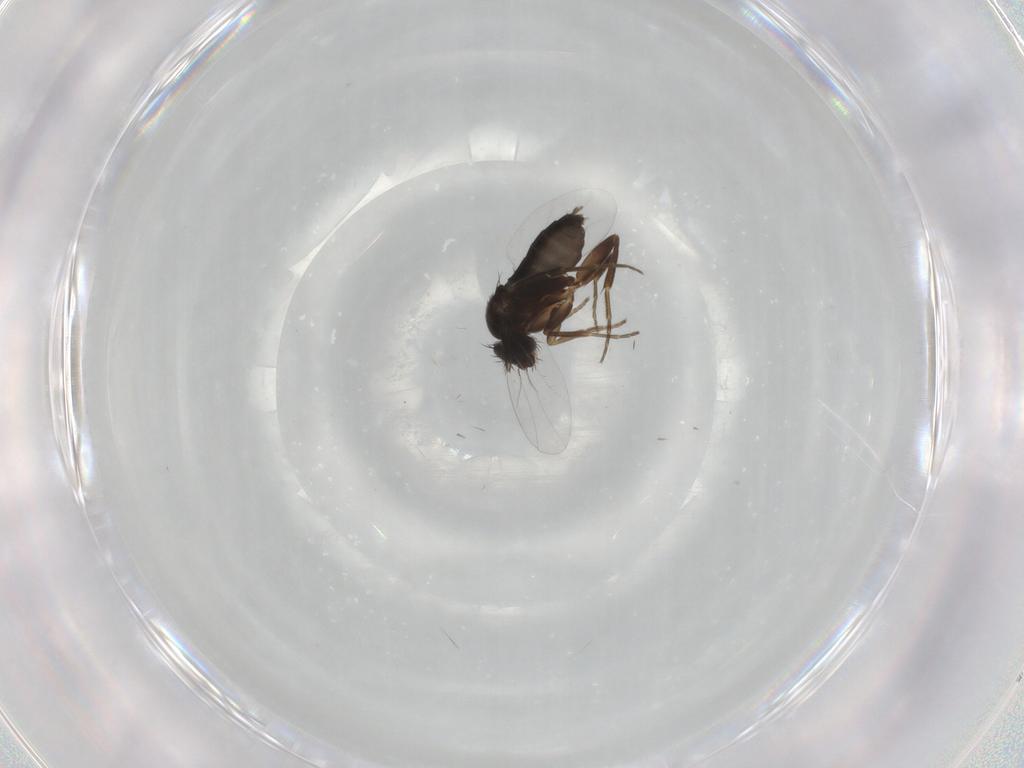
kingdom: Animalia
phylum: Arthropoda
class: Insecta
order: Diptera
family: Phoridae
